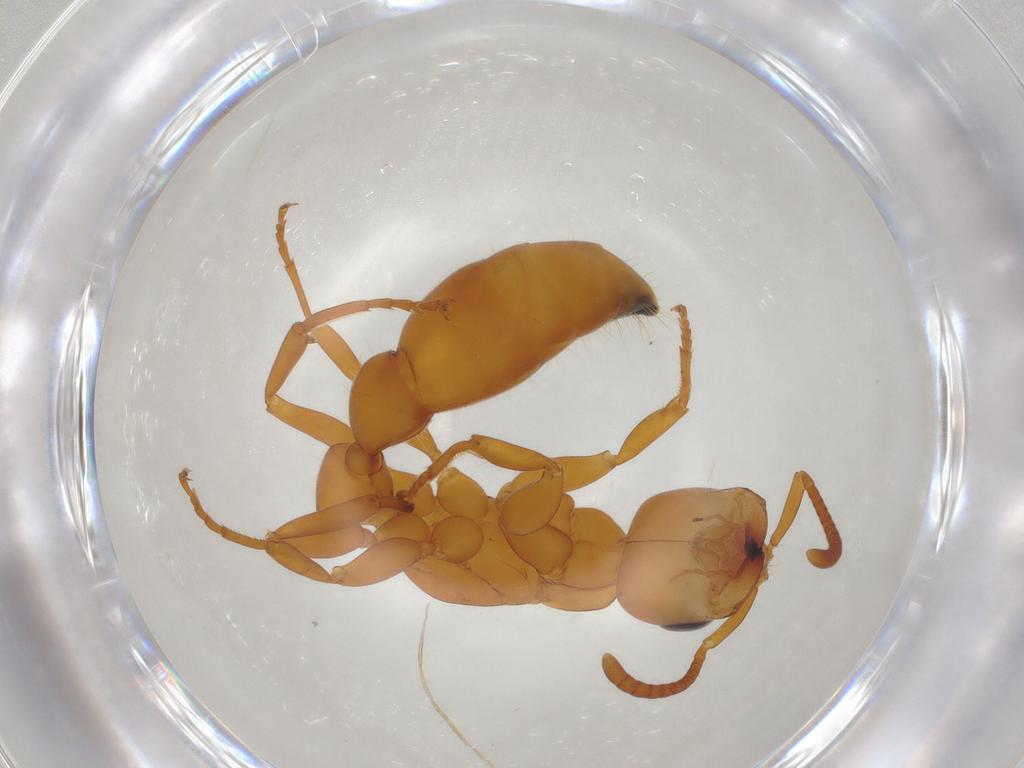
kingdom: Animalia
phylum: Arthropoda
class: Insecta
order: Hymenoptera
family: Formicidae
